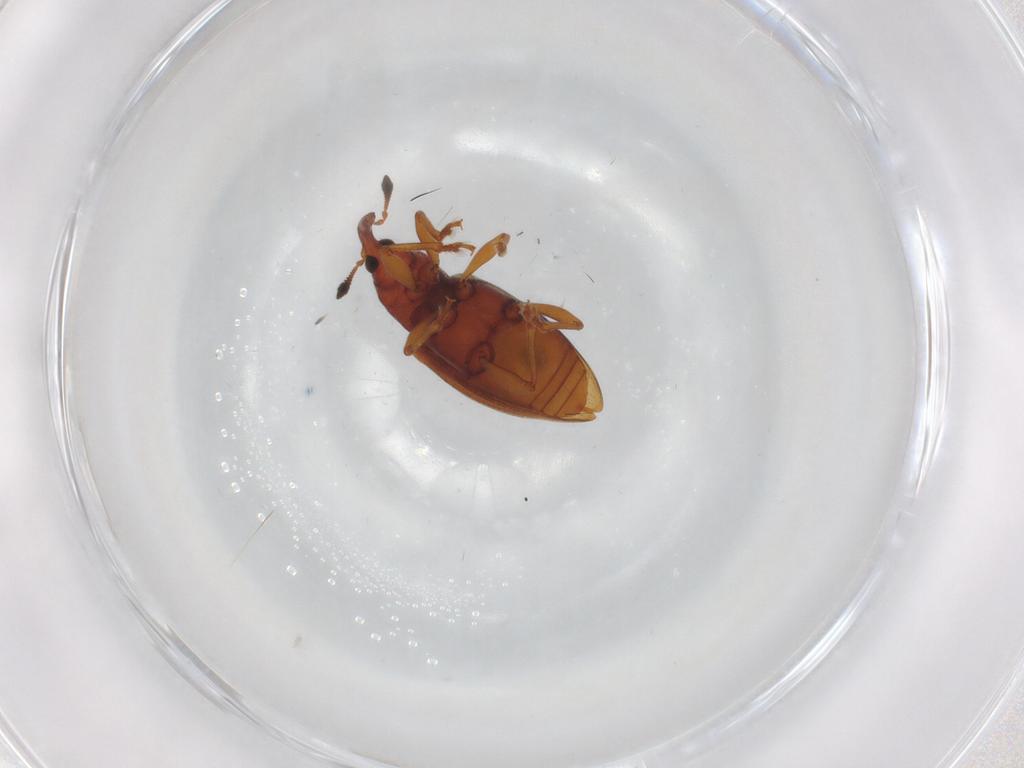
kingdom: Animalia
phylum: Arthropoda
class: Insecta
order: Coleoptera
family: Curculionidae
